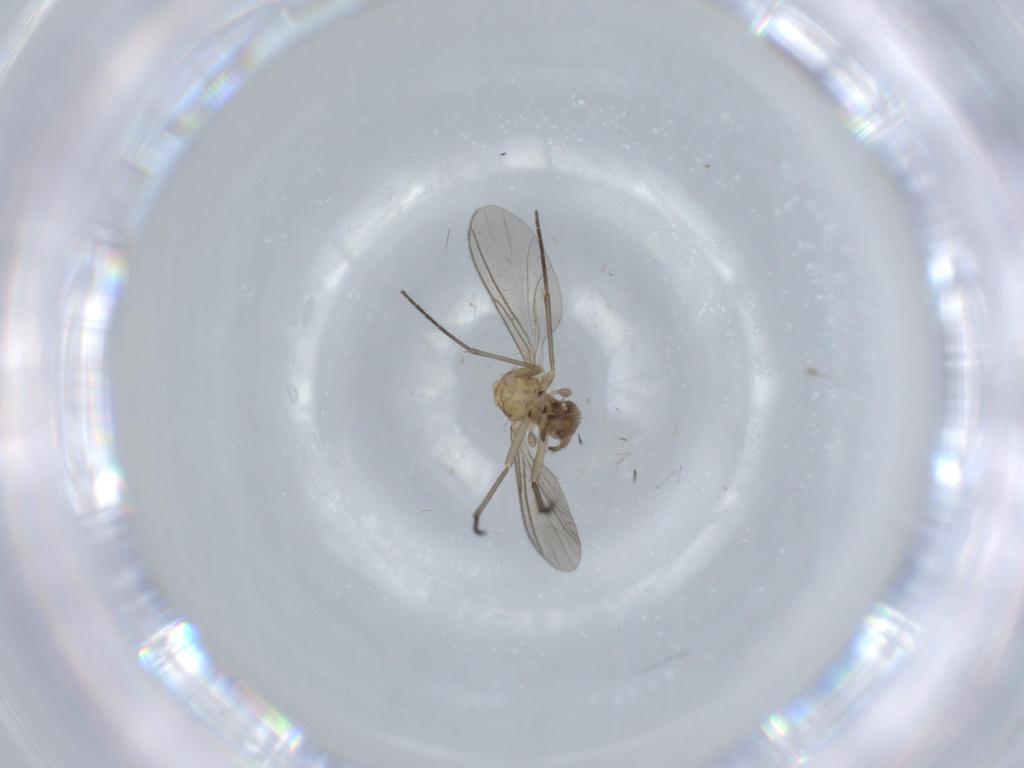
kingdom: Animalia
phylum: Arthropoda
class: Insecta
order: Diptera
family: Sciaridae
